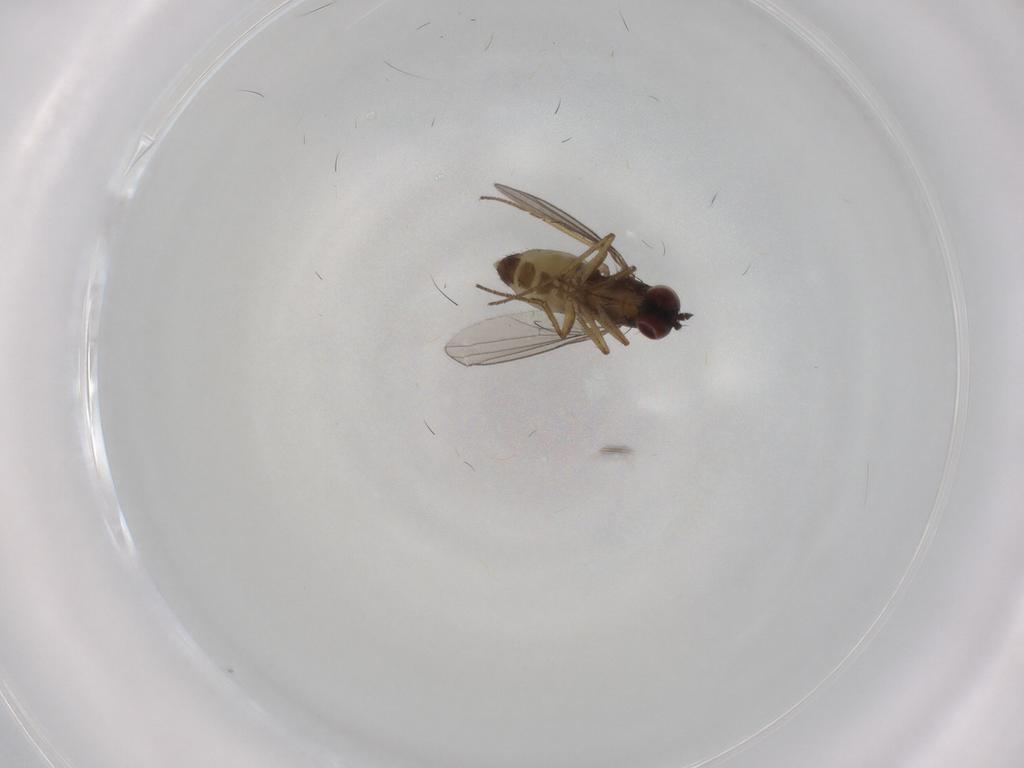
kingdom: Animalia
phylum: Arthropoda
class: Insecta
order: Diptera
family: Dolichopodidae
